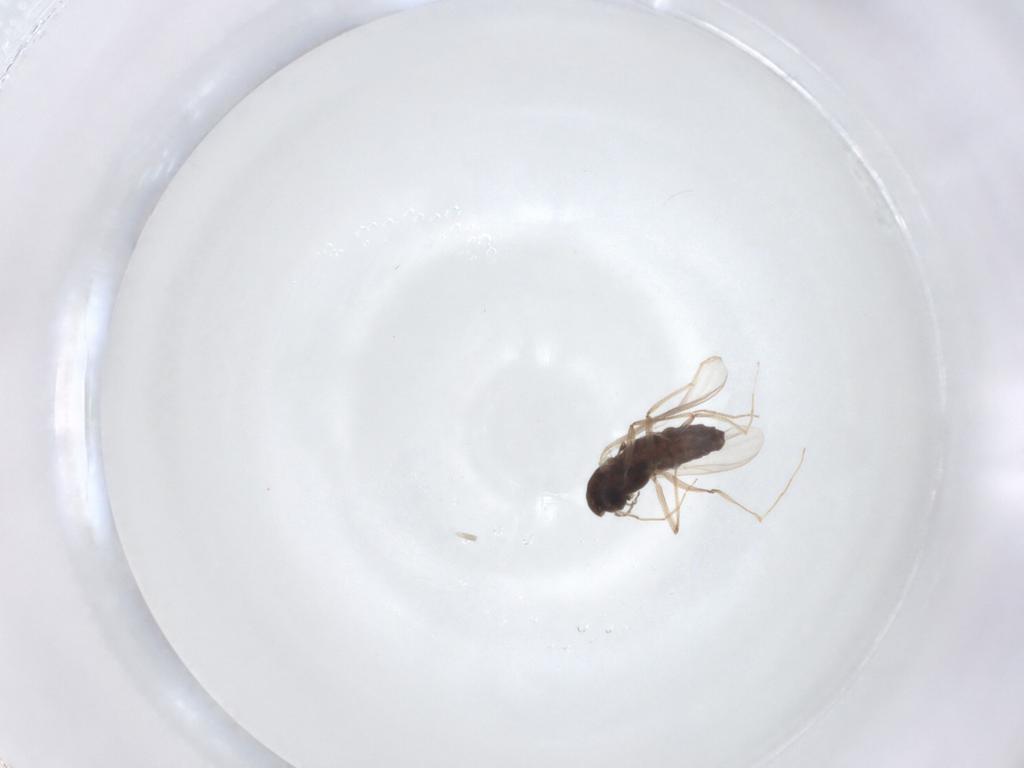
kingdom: Animalia
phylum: Arthropoda
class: Insecta
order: Diptera
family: Chironomidae
